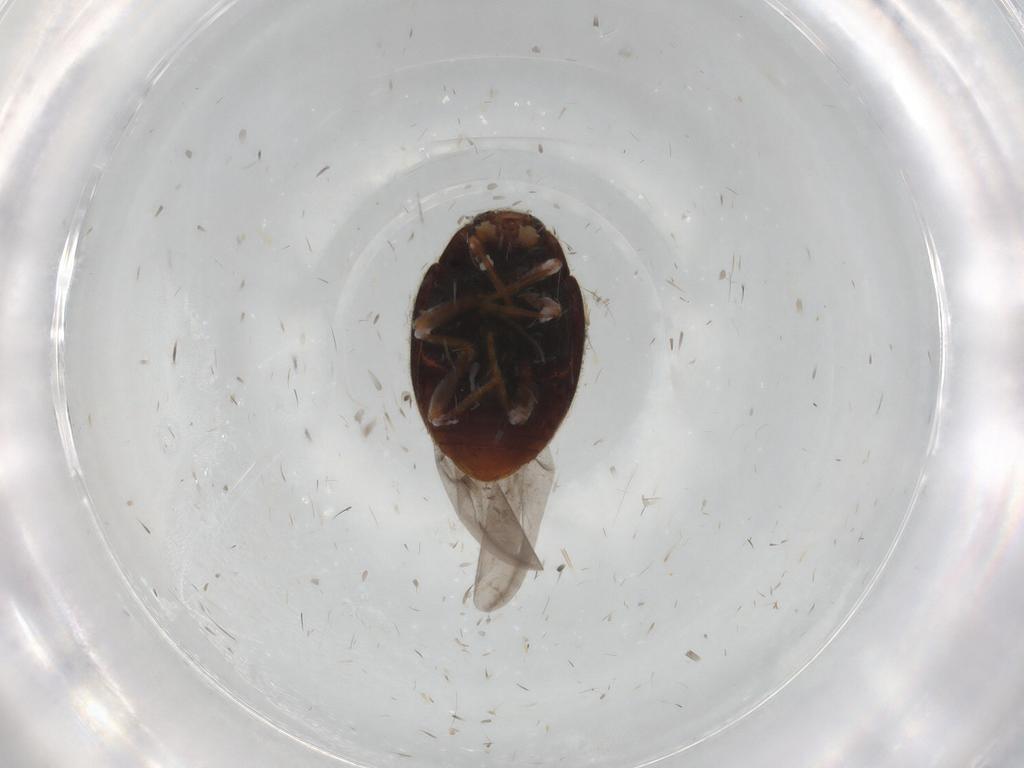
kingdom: Animalia
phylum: Arthropoda
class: Insecta
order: Coleoptera
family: Coccinellidae
